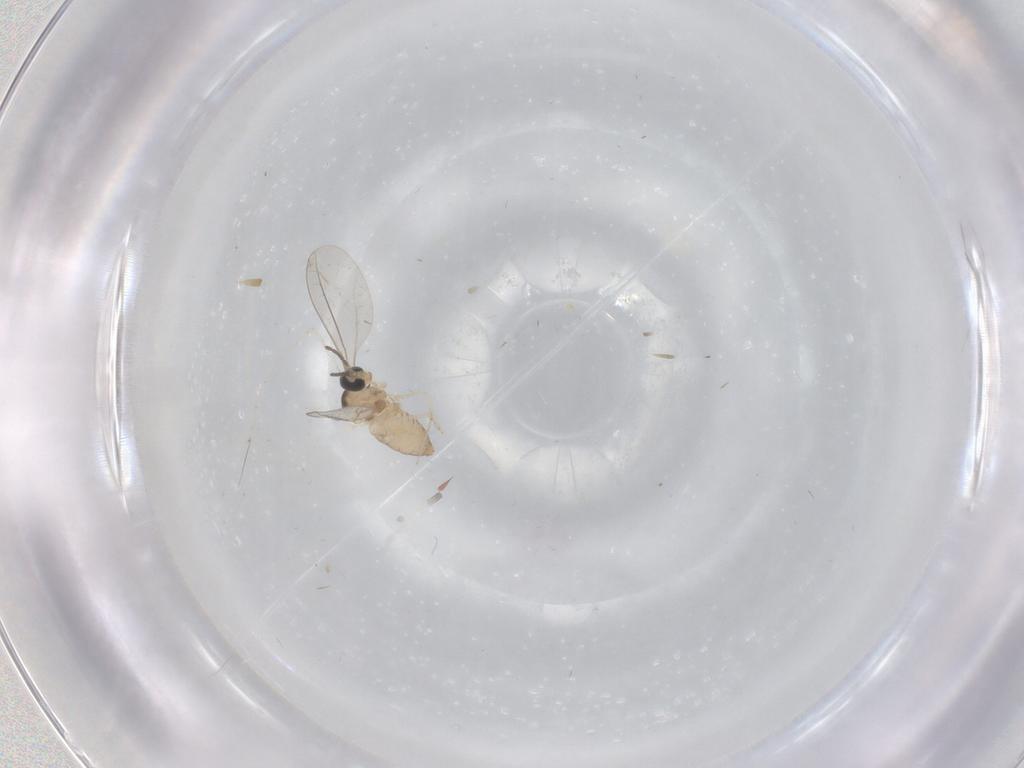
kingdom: Animalia
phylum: Arthropoda
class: Insecta
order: Diptera
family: Cecidomyiidae
